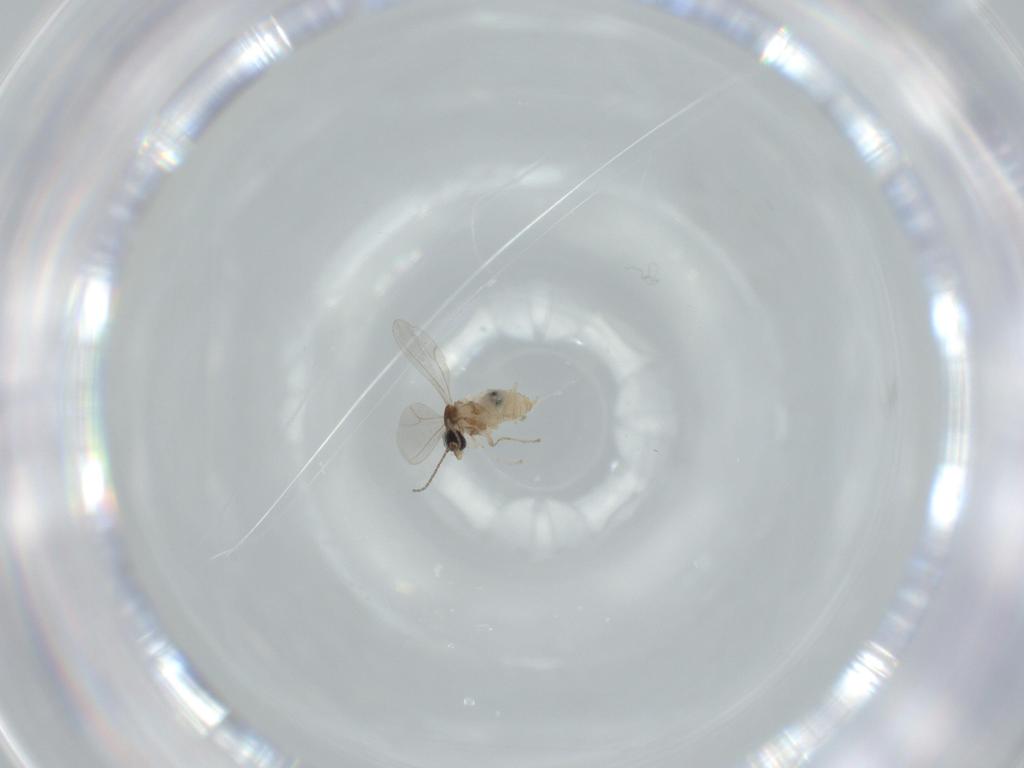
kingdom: Animalia
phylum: Arthropoda
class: Insecta
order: Diptera
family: Cecidomyiidae
